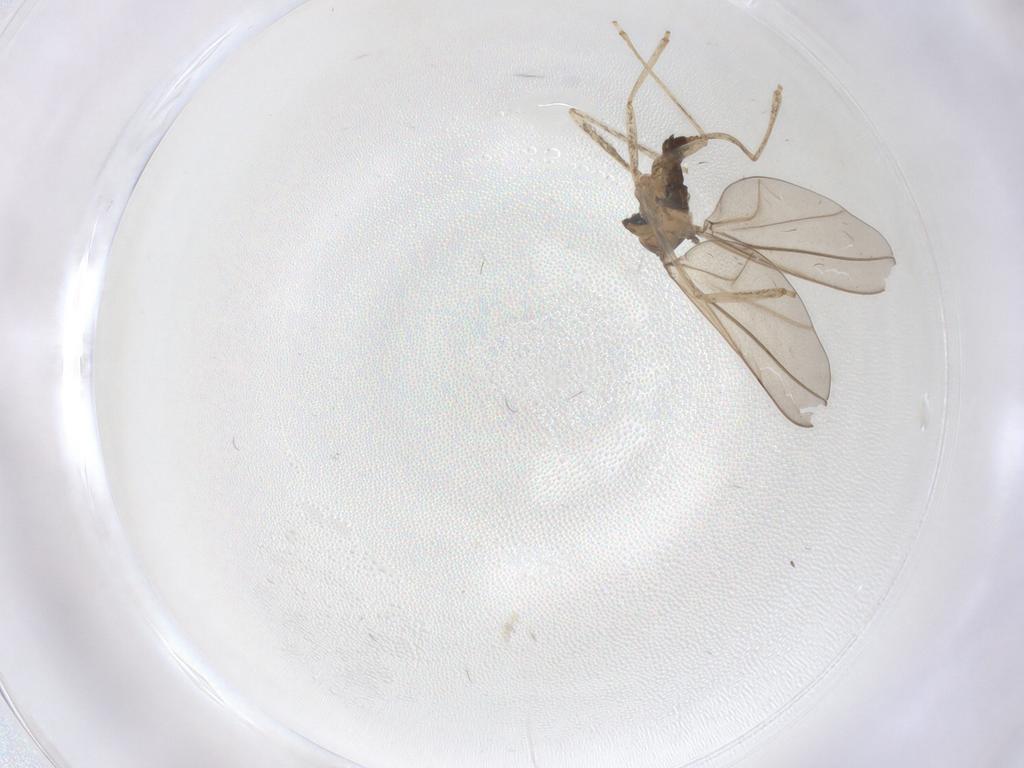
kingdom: Animalia
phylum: Arthropoda
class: Insecta
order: Diptera
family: Cecidomyiidae
